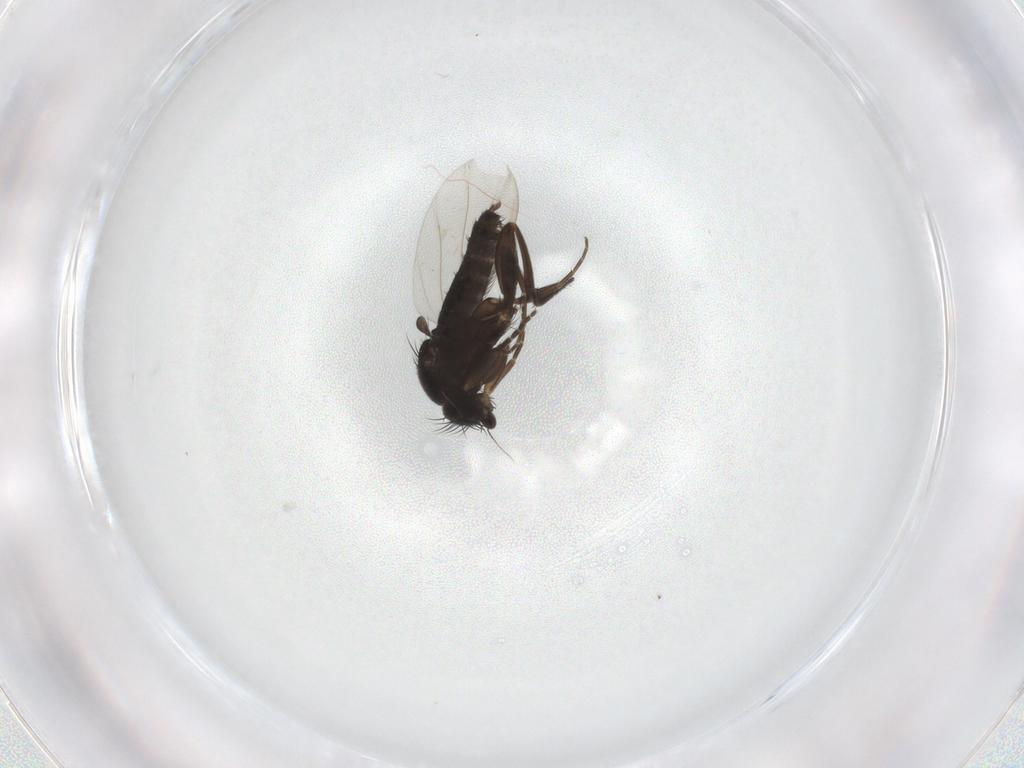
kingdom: Animalia
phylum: Arthropoda
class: Insecta
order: Diptera
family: Phoridae
